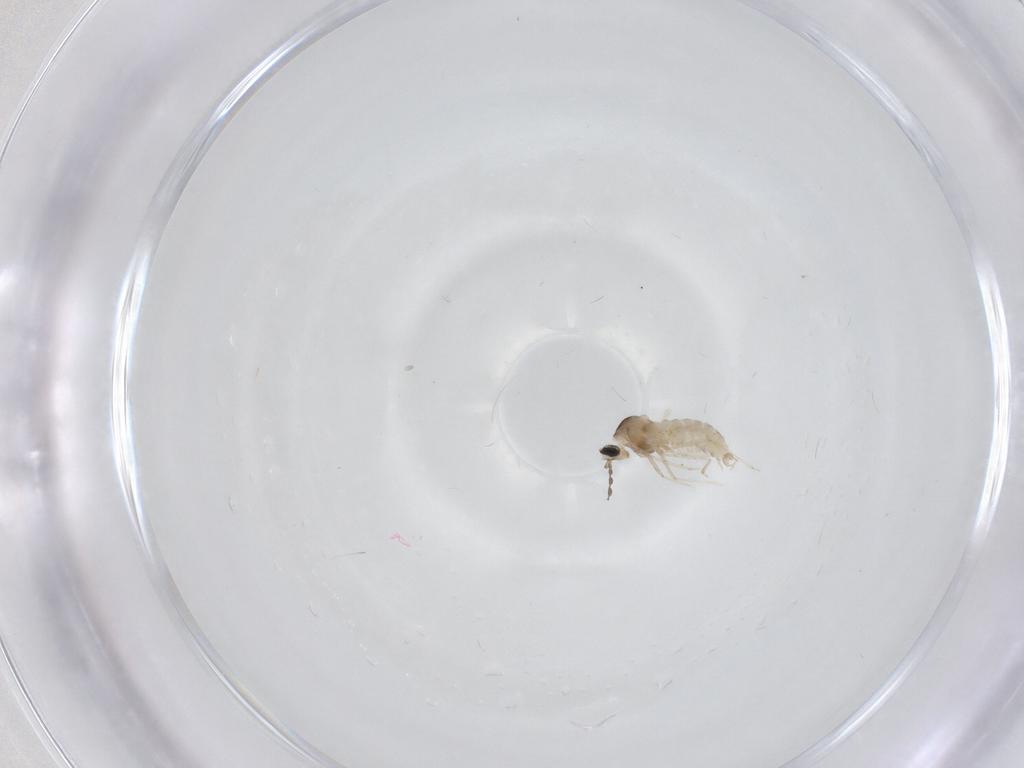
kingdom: Animalia
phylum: Arthropoda
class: Insecta
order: Diptera
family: Cecidomyiidae
